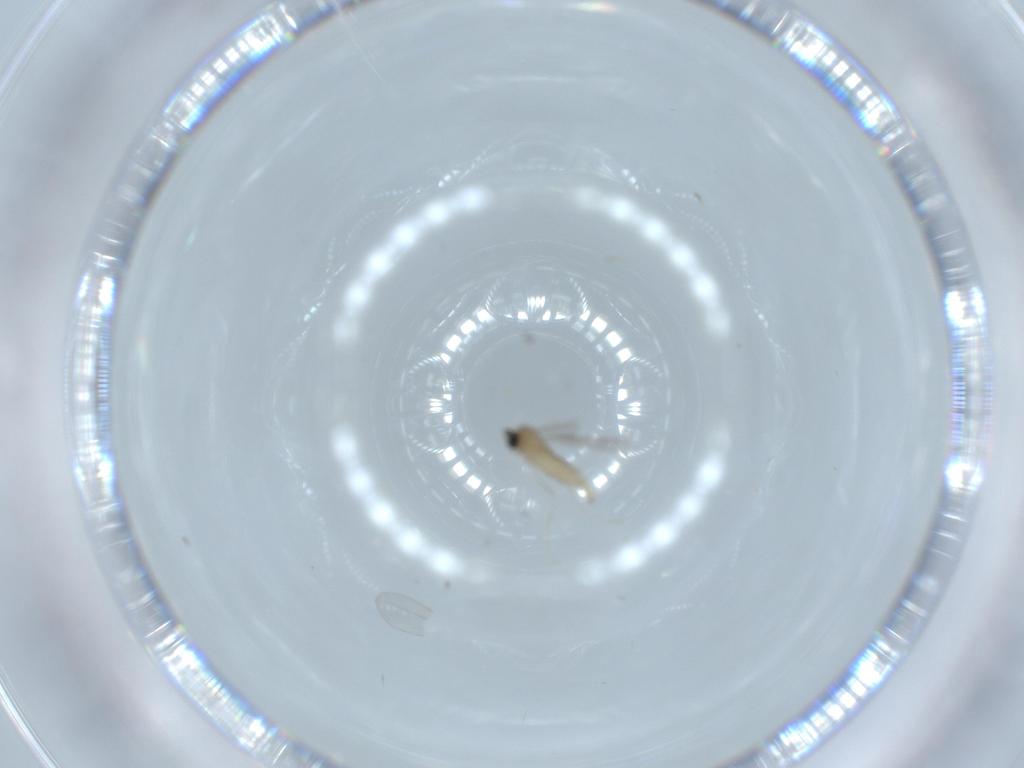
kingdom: Animalia
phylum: Arthropoda
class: Insecta
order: Diptera
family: Cecidomyiidae
